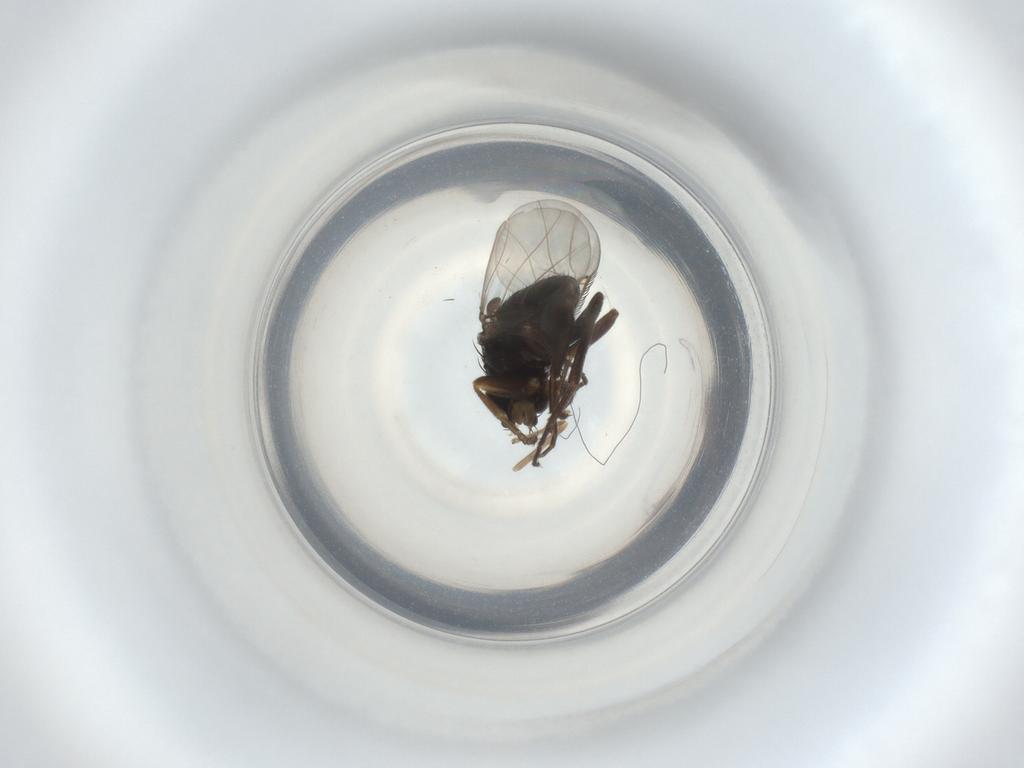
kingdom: Animalia
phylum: Arthropoda
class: Insecta
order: Diptera
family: Phoridae
